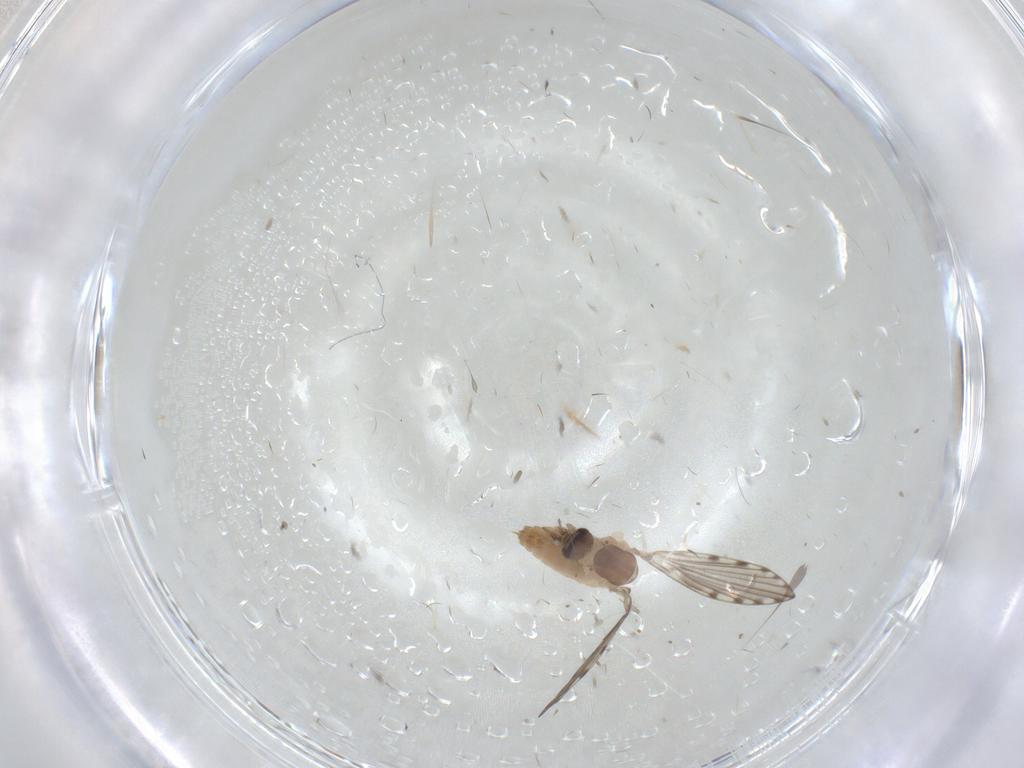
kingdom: Animalia
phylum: Arthropoda
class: Insecta
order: Diptera
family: Psychodidae
